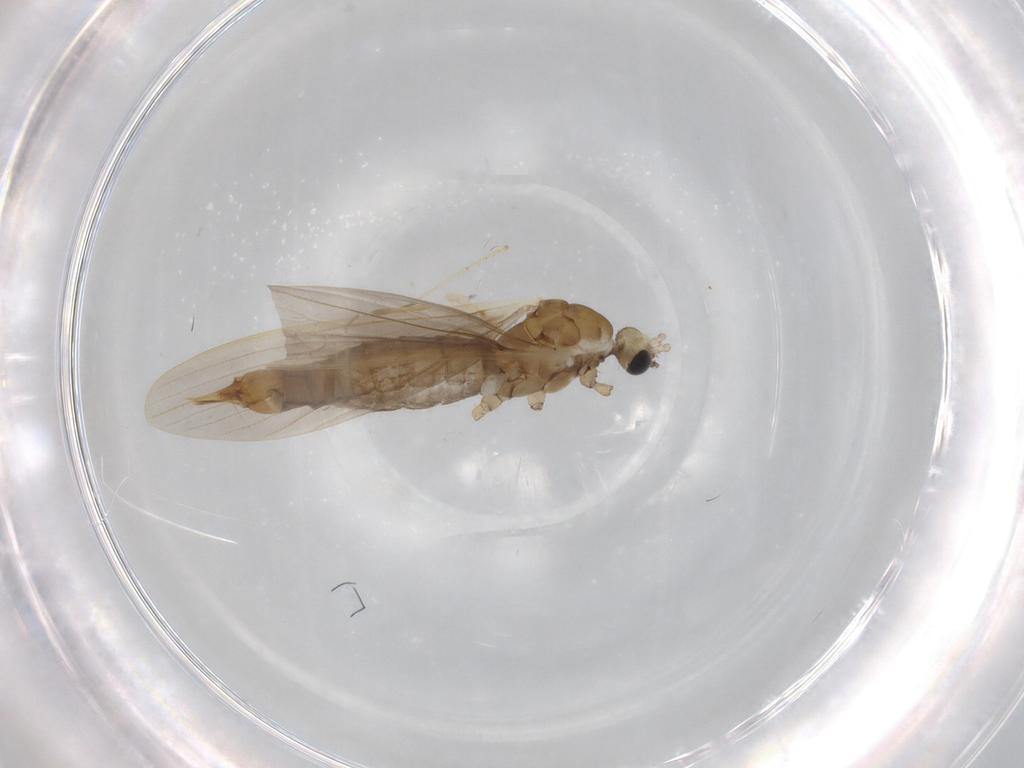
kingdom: Animalia
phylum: Arthropoda
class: Insecta
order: Diptera
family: Limoniidae
